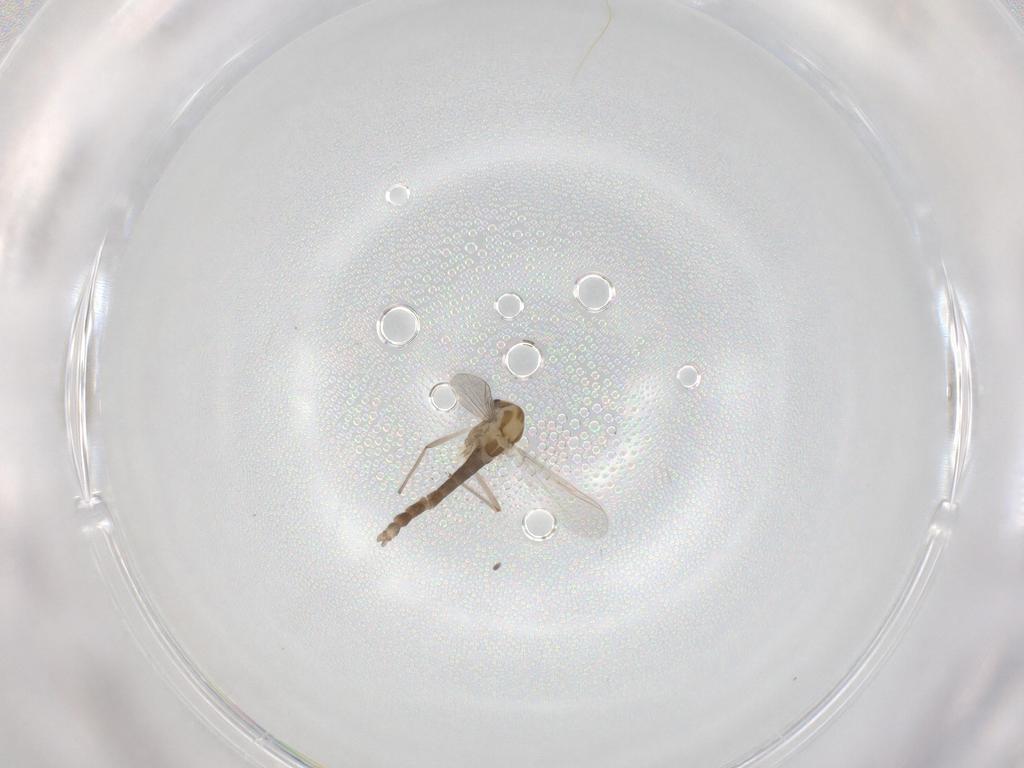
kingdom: Animalia
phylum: Arthropoda
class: Insecta
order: Diptera
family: Chironomidae
